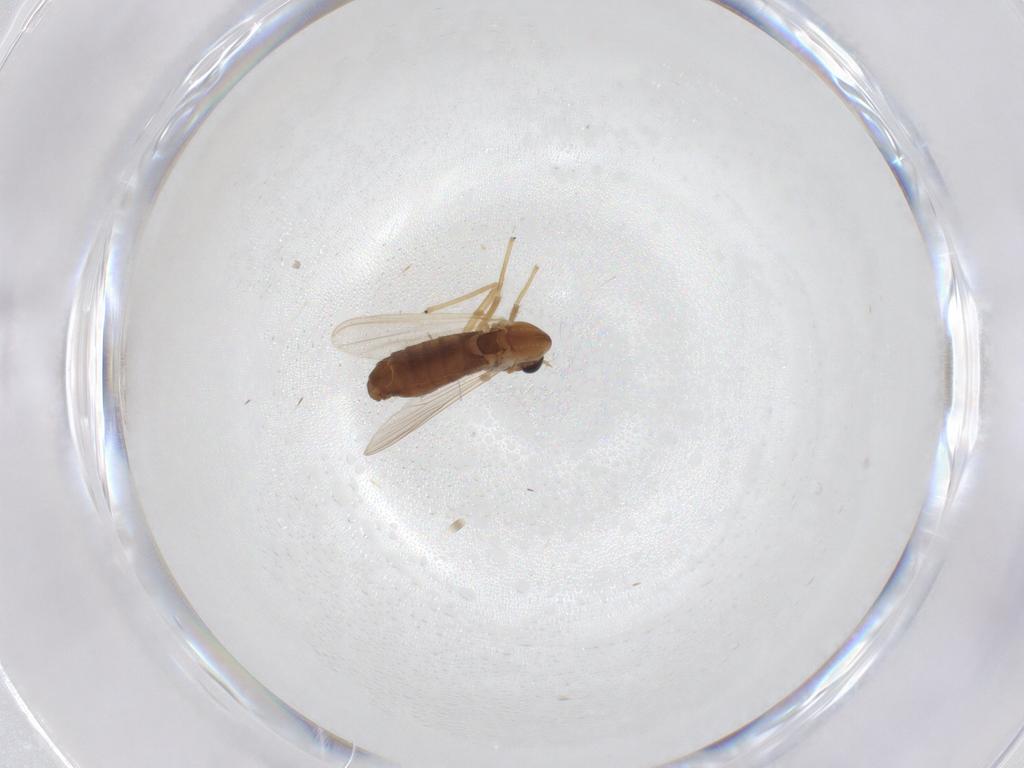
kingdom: Animalia
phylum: Arthropoda
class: Insecta
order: Diptera
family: Chironomidae
